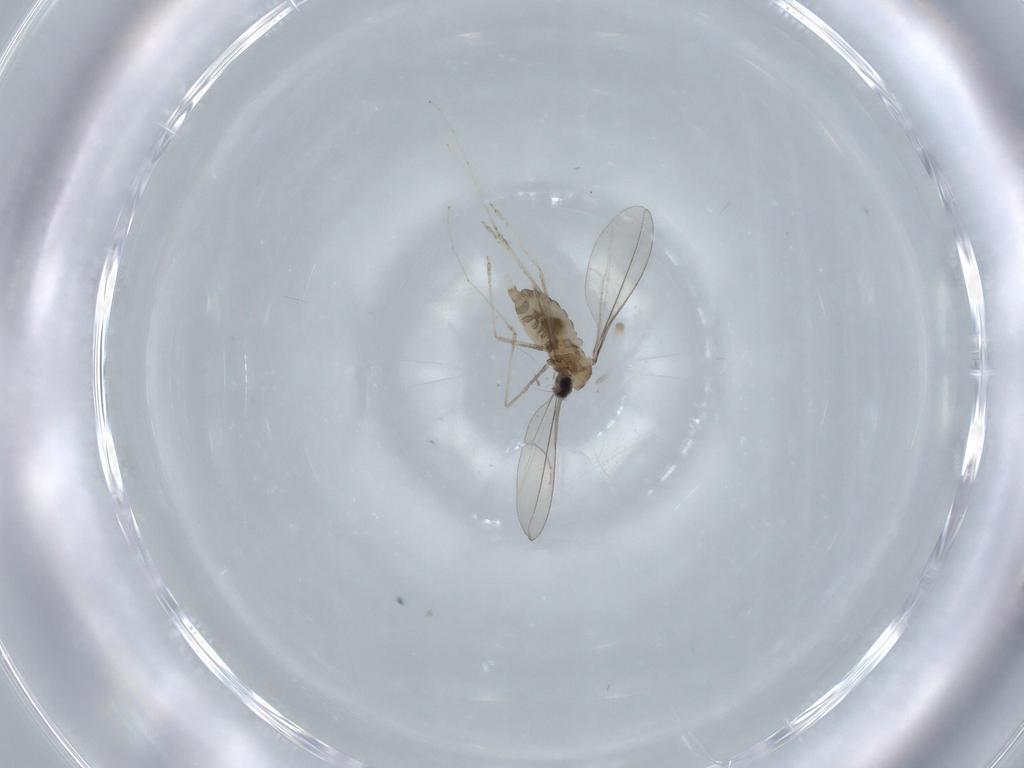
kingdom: Animalia
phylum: Arthropoda
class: Insecta
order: Diptera
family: Cecidomyiidae
